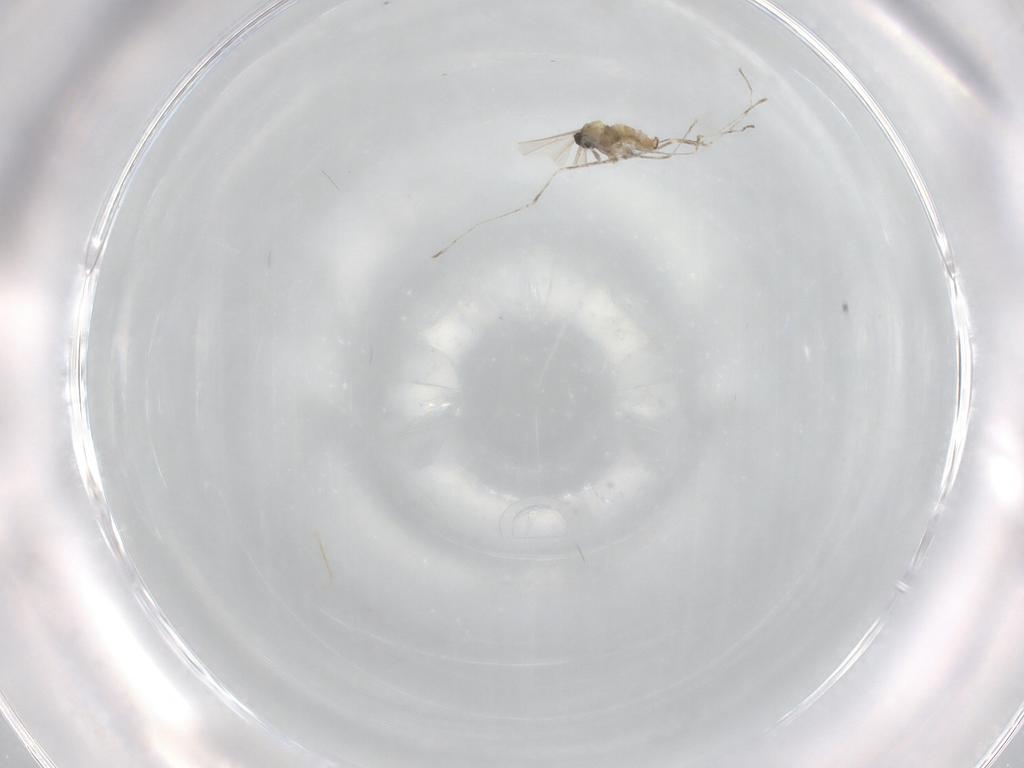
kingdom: Animalia
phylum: Arthropoda
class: Insecta
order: Diptera
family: Cecidomyiidae
